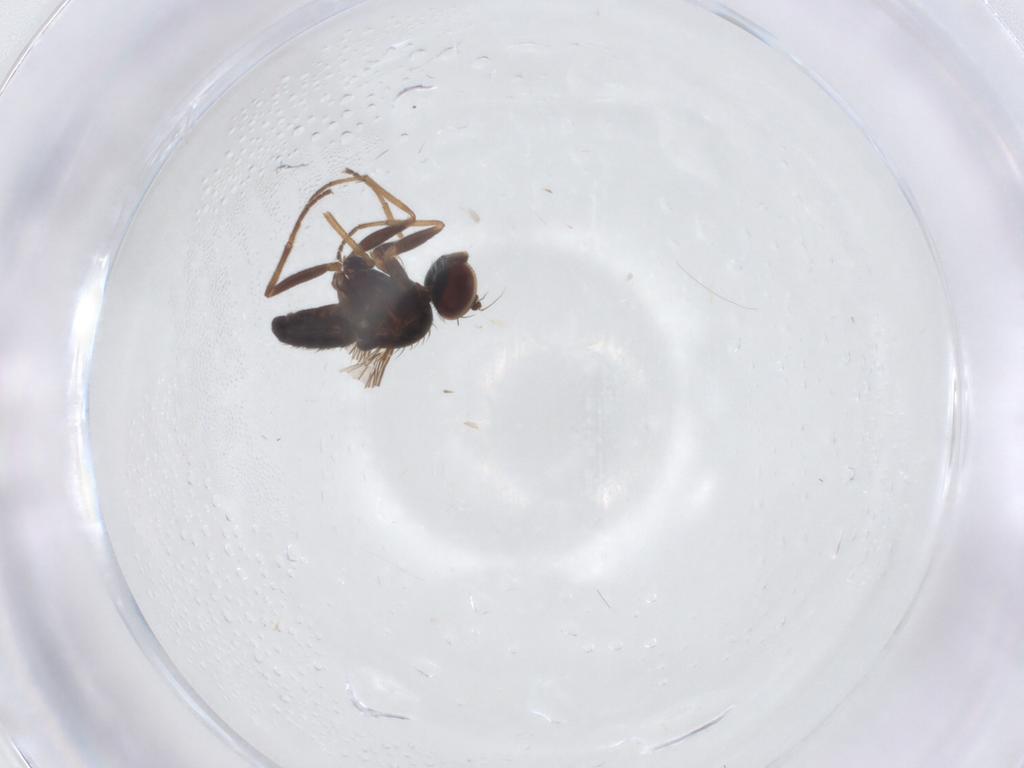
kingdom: Animalia
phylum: Arthropoda
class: Insecta
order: Diptera
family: Dolichopodidae
